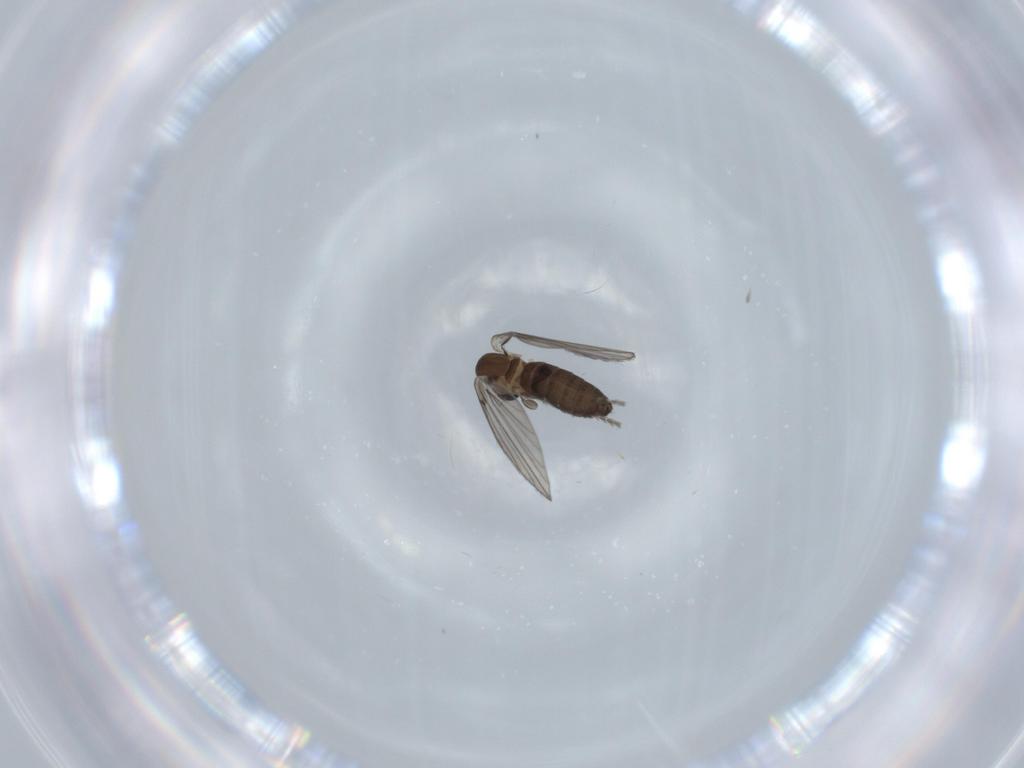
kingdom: Animalia
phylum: Arthropoda
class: Insecta
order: Diptera
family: Psychodidae
